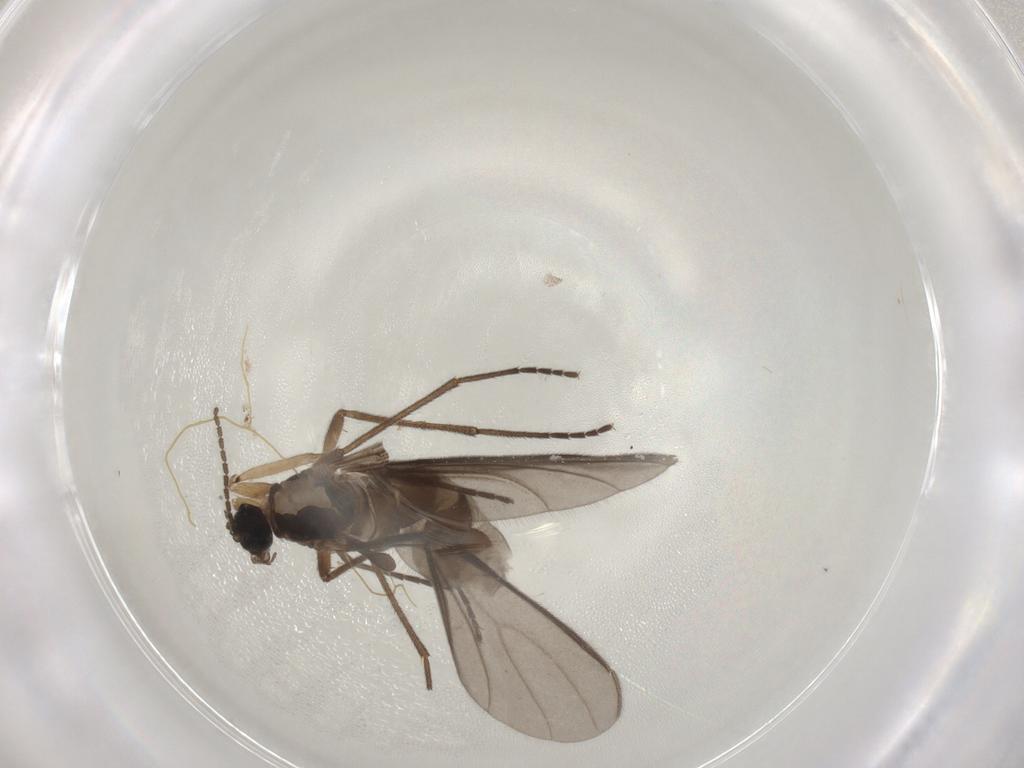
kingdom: Animalia
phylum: Arthropoda
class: Insecta
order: Diptera
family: Sciaridae
